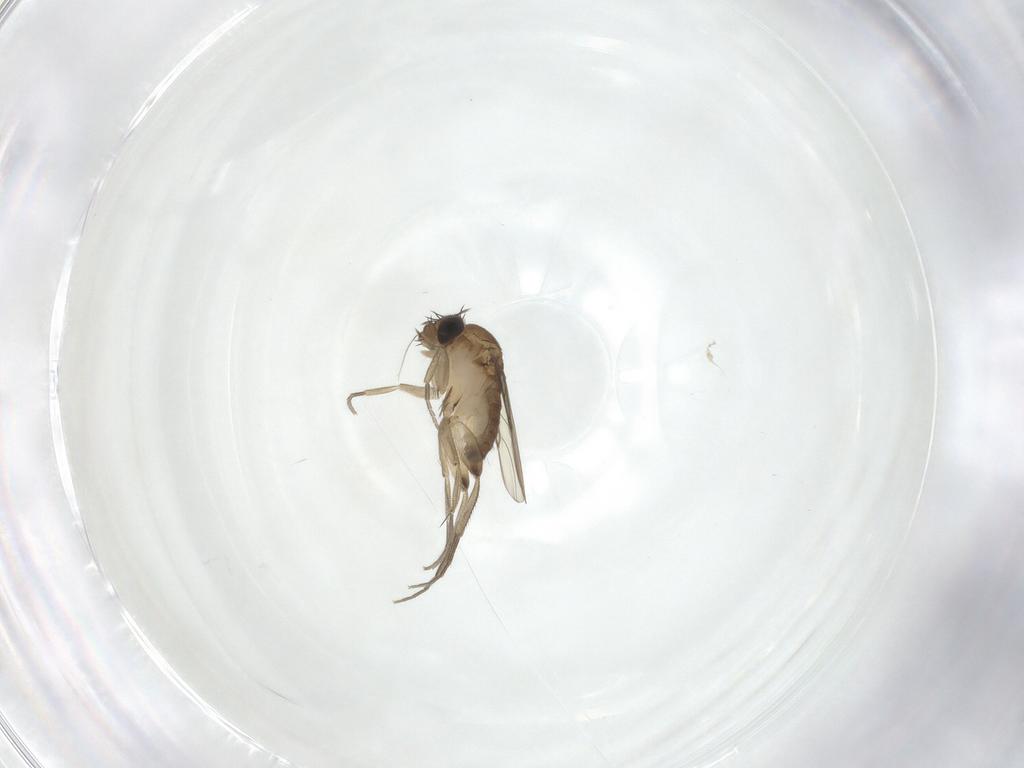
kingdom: Animalia
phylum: Arthropoda
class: Insecta
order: Diptera
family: Phoridae
